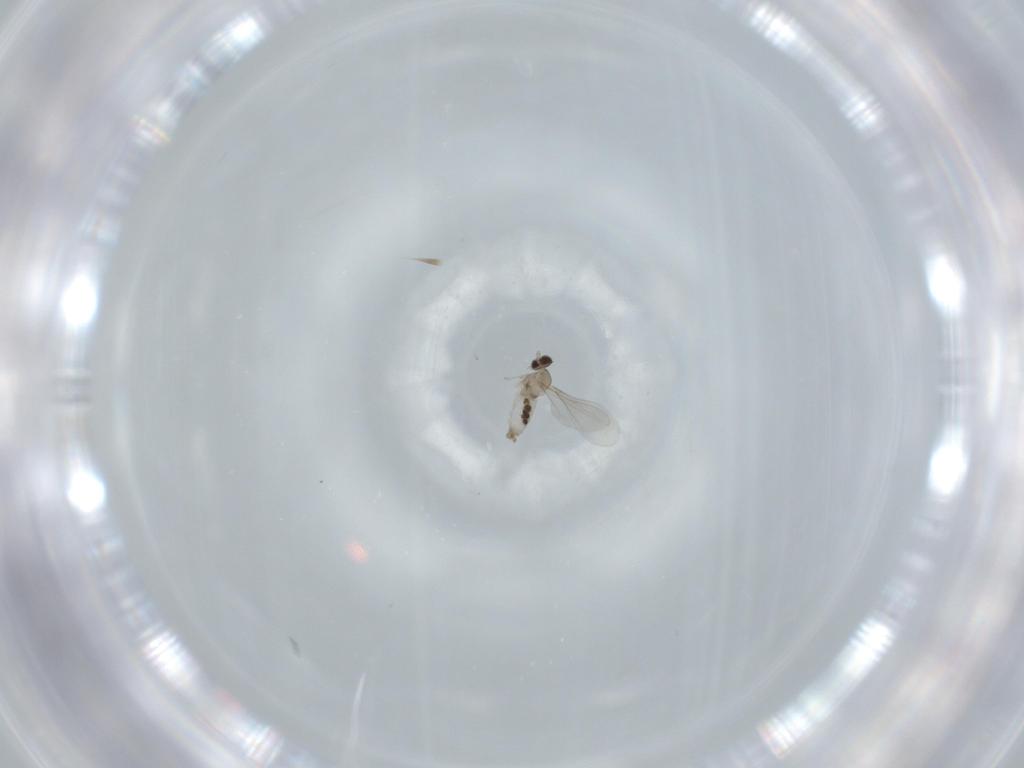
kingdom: Animalia
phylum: Arthropoda
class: Insecta
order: Diptera
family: Cecidomyiidae
